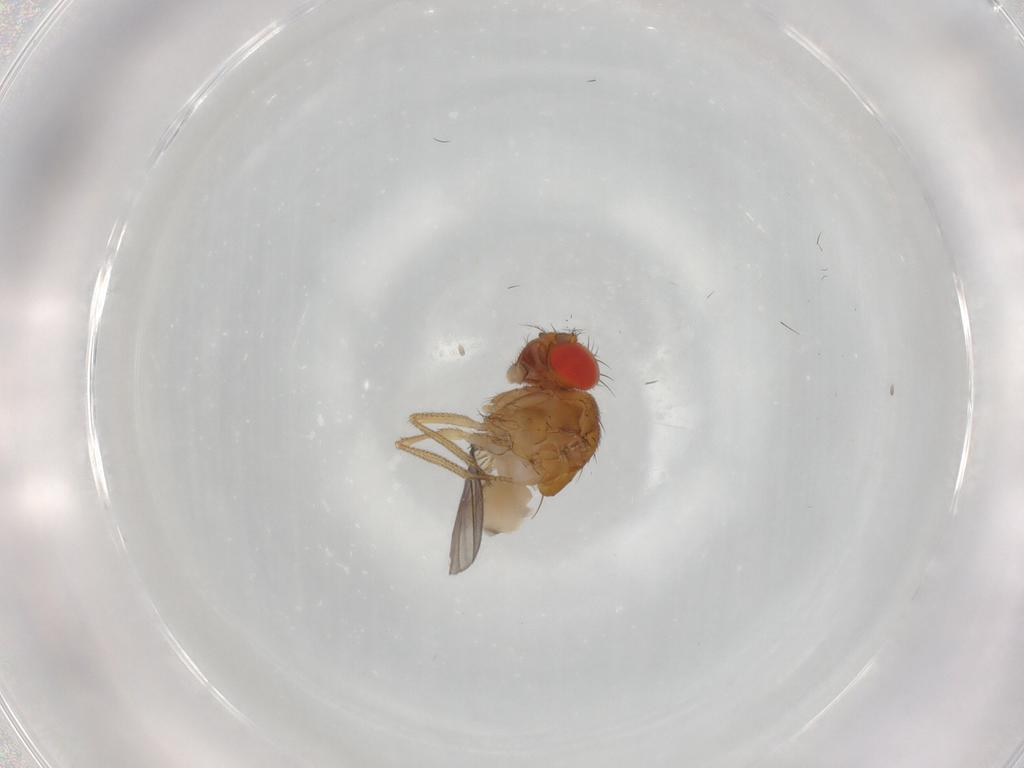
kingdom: Animalia
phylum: Arthropoda
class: Insecta
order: Diptera
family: Drosophilidae
